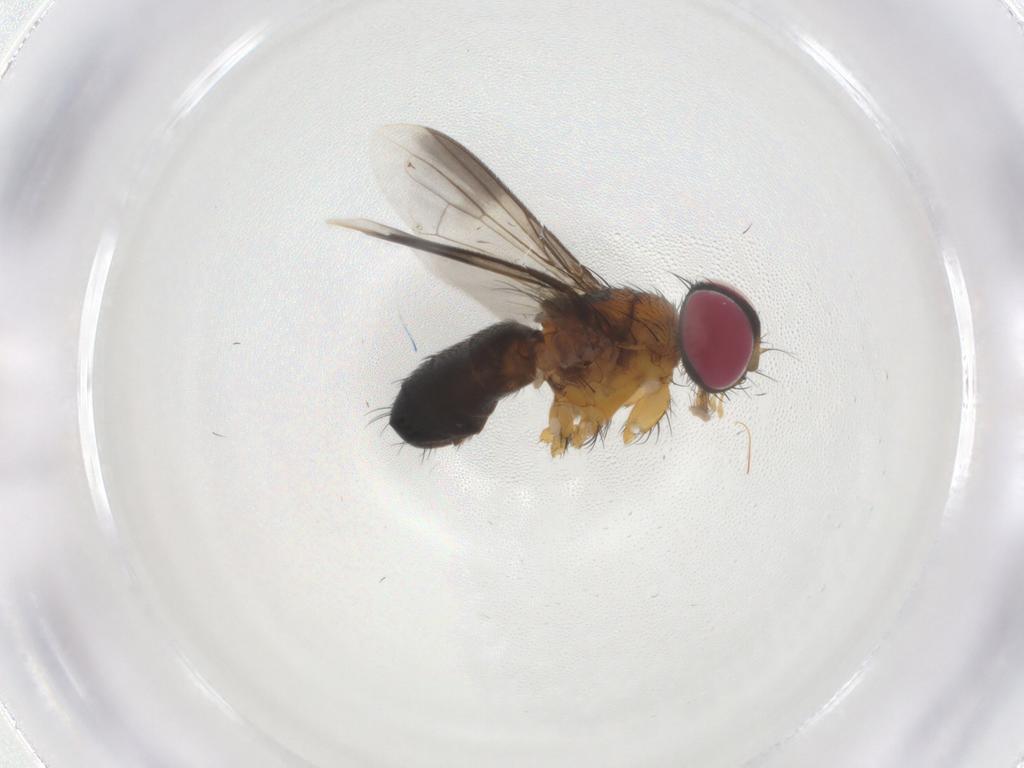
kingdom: Animalia
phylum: Arthropoda
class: Insecta
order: Diptera
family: Tachinidae
